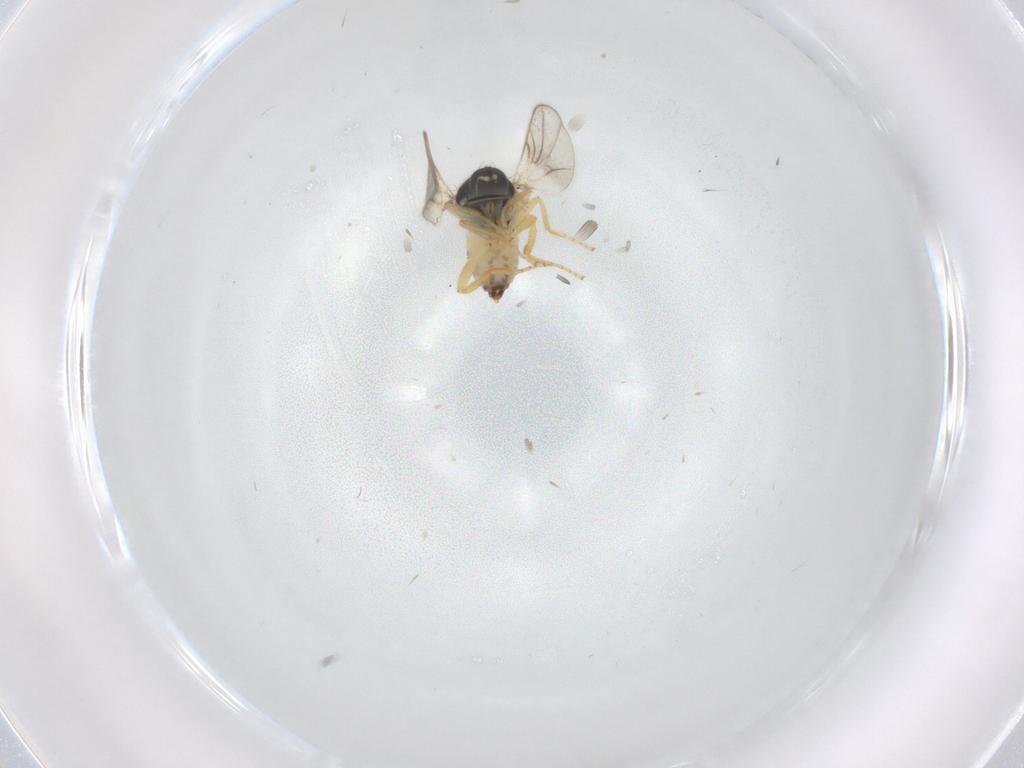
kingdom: Animalia
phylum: Arthropoda
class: Insecta
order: Diptera
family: Hybotidae
